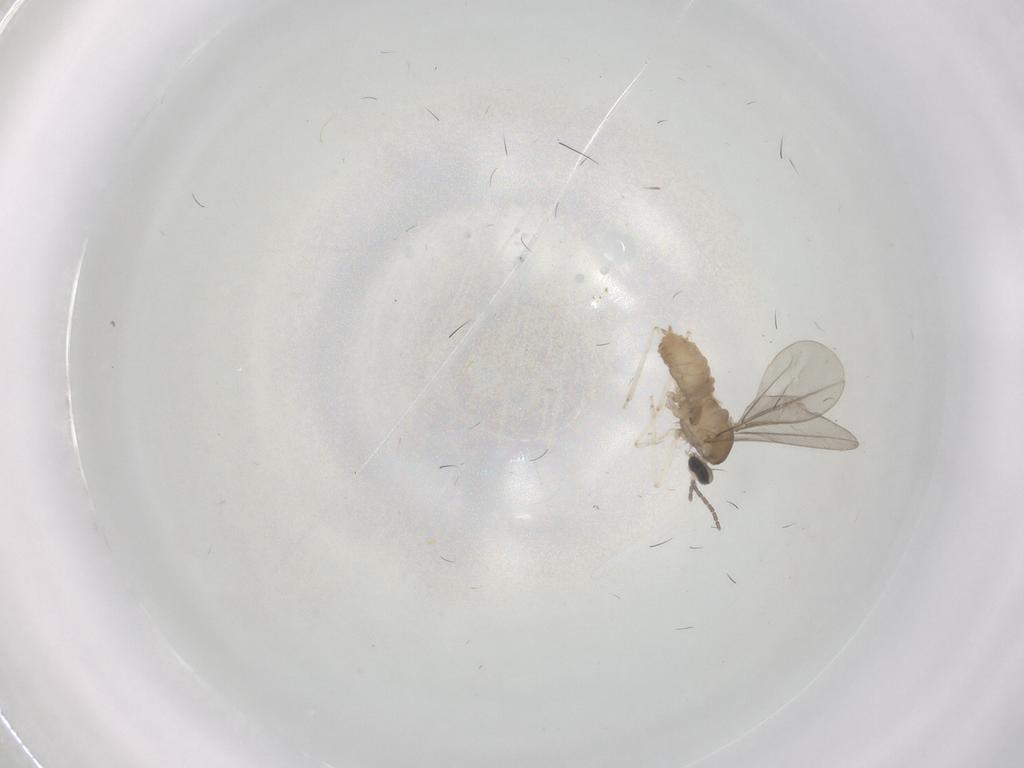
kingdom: Animalia
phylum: Arthropoda
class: Insecta
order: Diptera
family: Cecidomyiidae
